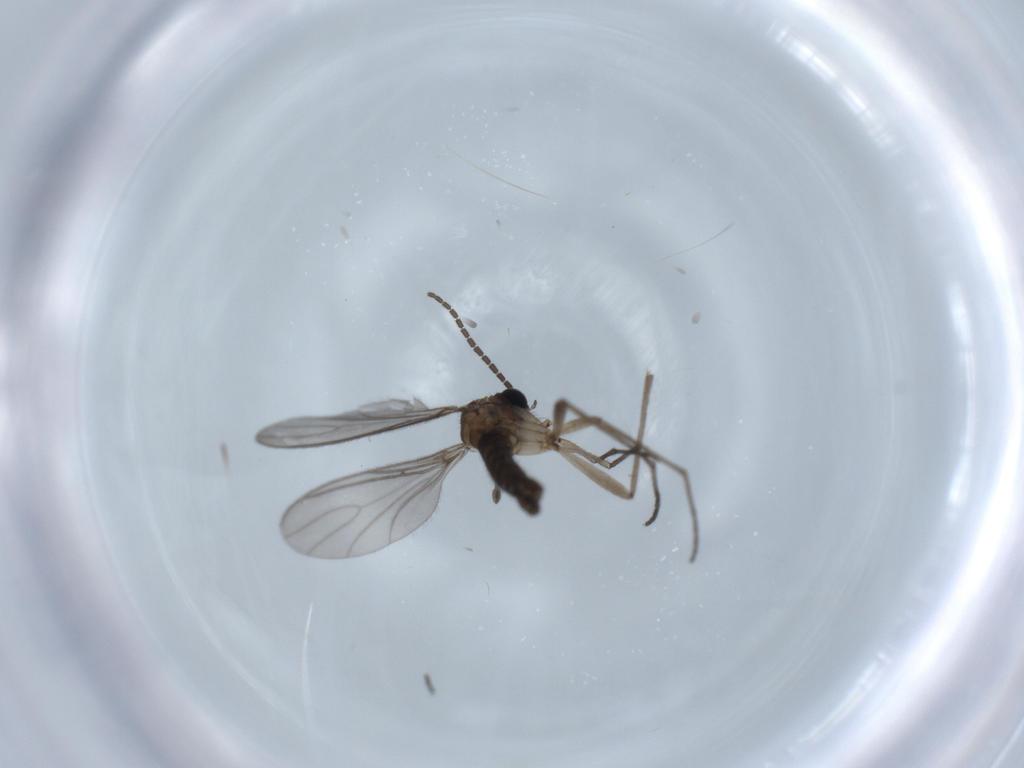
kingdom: Animalia
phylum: Arthropoda
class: Insecta
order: Diptera
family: Sciaridae
